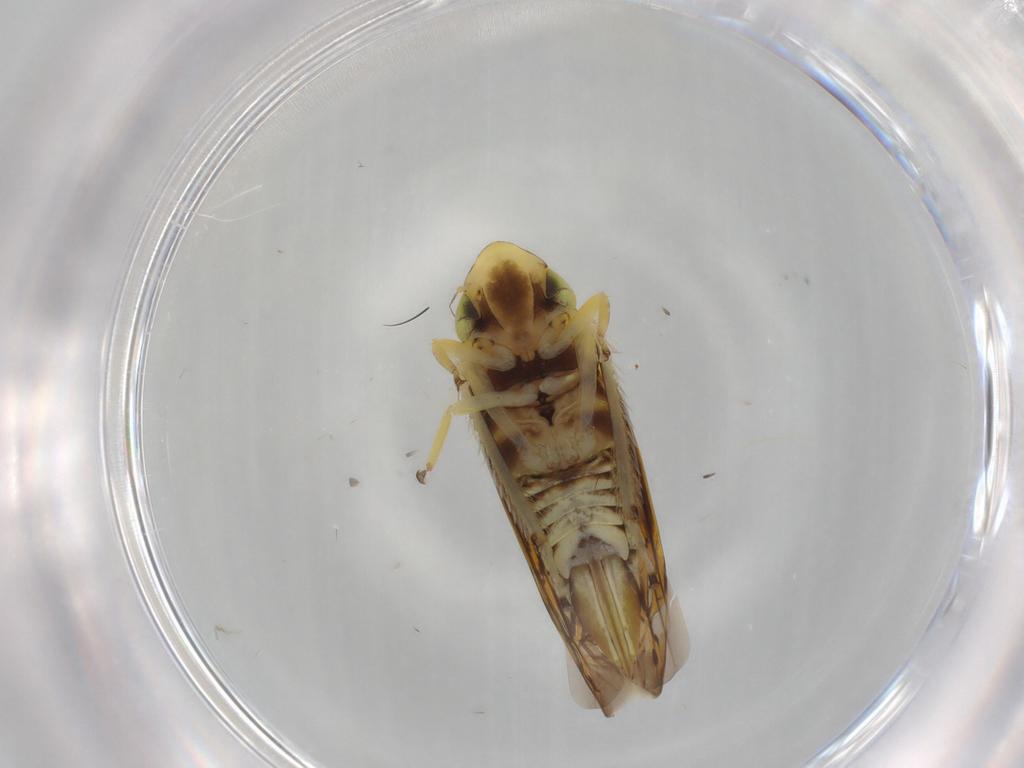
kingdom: Animalia
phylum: Arthropoda
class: Insecta
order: Hemiptera
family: Cicadellidae
